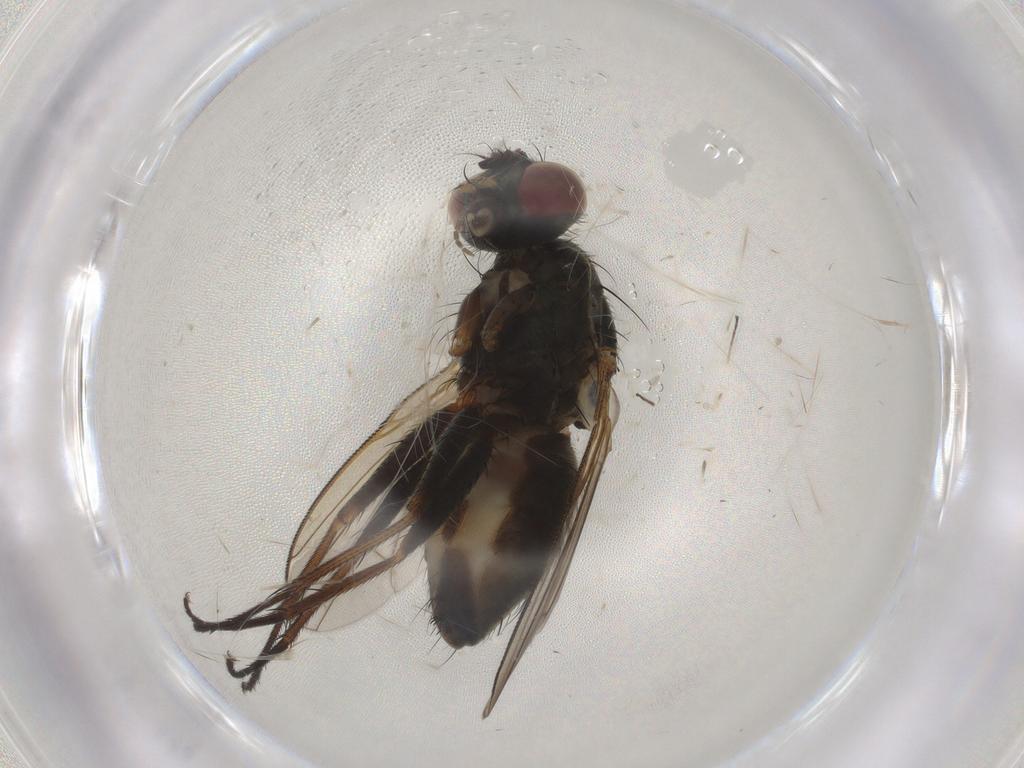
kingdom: Animalia
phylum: Arthropoda
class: Insecta
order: Diptera
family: Muscidae
